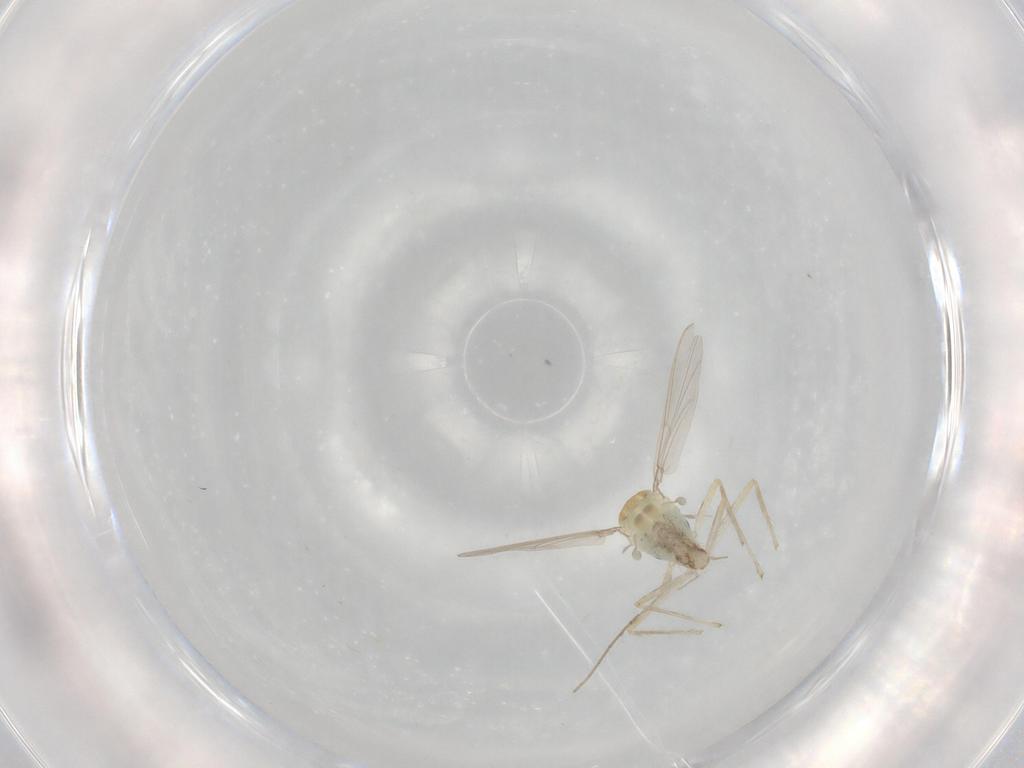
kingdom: Animalia
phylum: Arthropoda
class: Insecta
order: Diptera
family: Chironomidae
